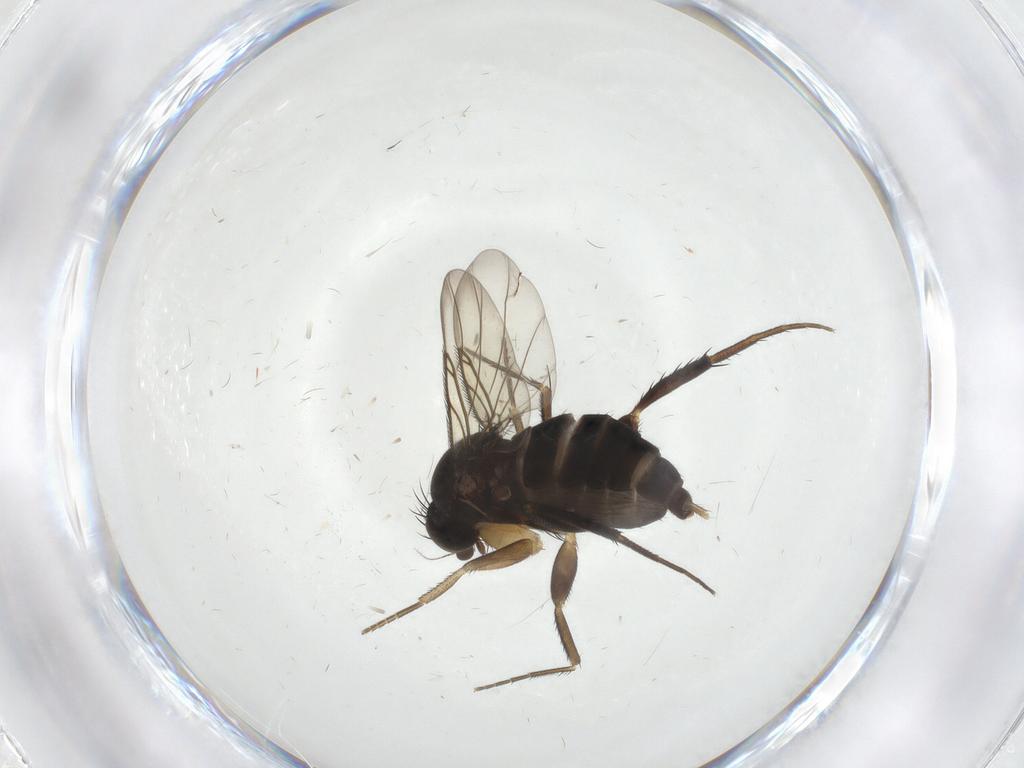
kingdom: Animalia
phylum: Arthropoda
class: Insecta
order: Diptera
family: Phoridae
